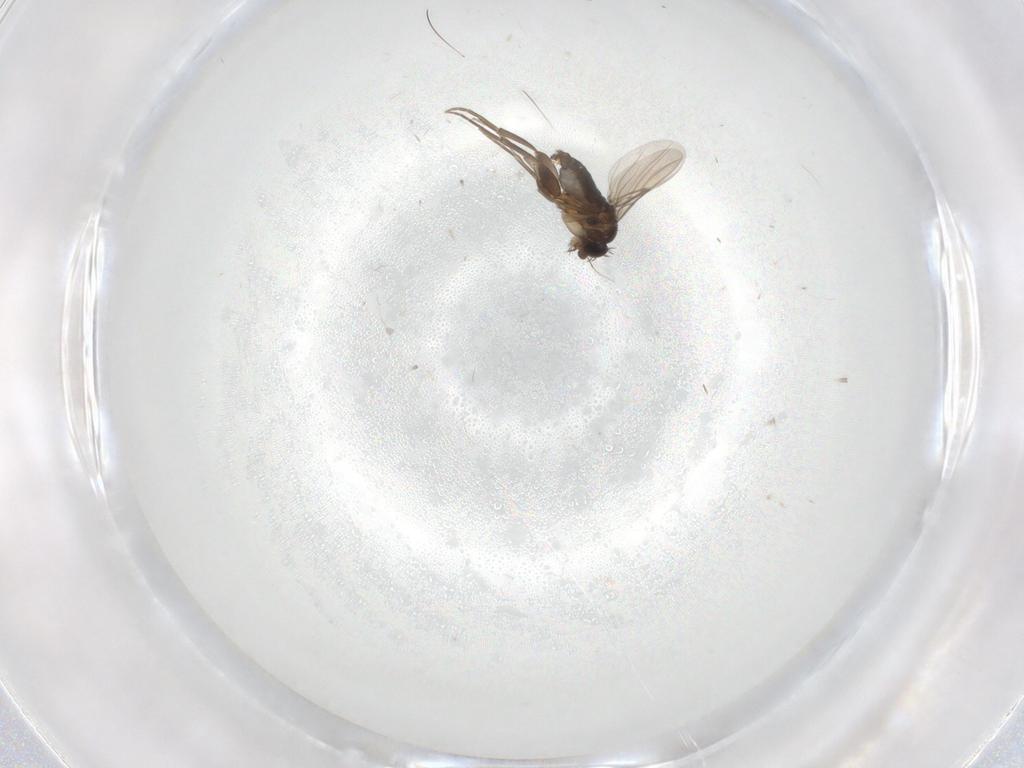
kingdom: Animalia
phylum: Arthropoda
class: Insecta
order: Diptera
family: Phoridae
